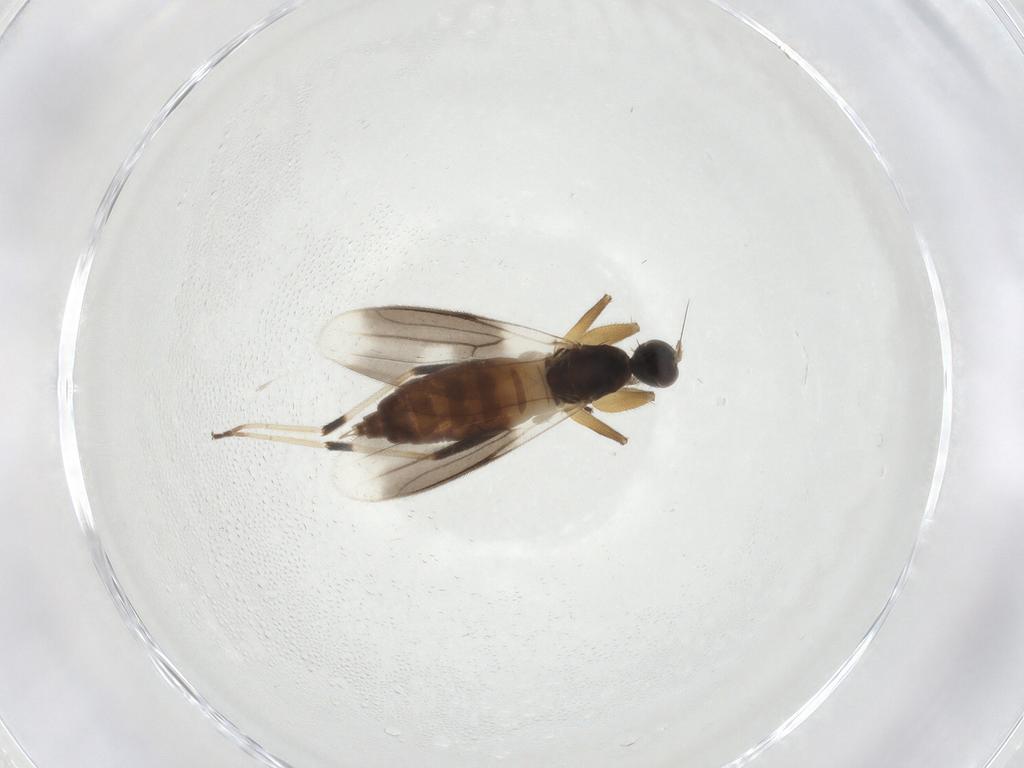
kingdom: Animalia
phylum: Arthropoda
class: Insecta
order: Diptera
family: Hybotidae
